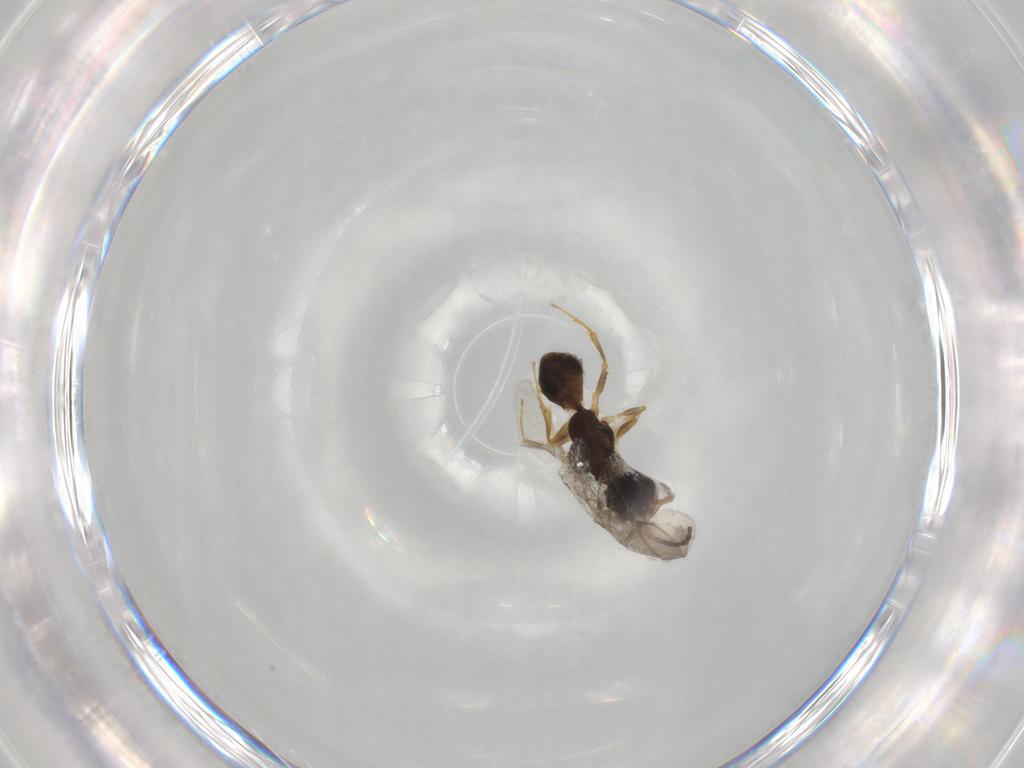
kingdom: Animalia
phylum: Arthropoda
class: Insecta
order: Hymenoptera
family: Bethylidae
